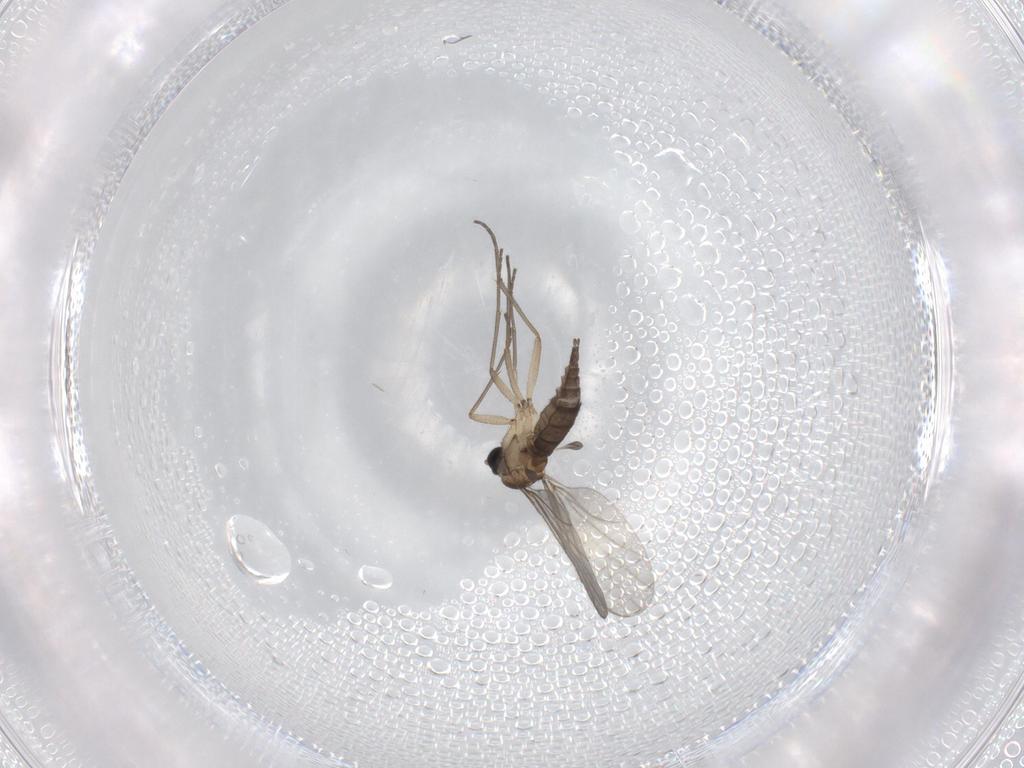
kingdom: Animalia
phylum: Arthropoda
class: Insecta
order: Diptera
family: Sciaridae
